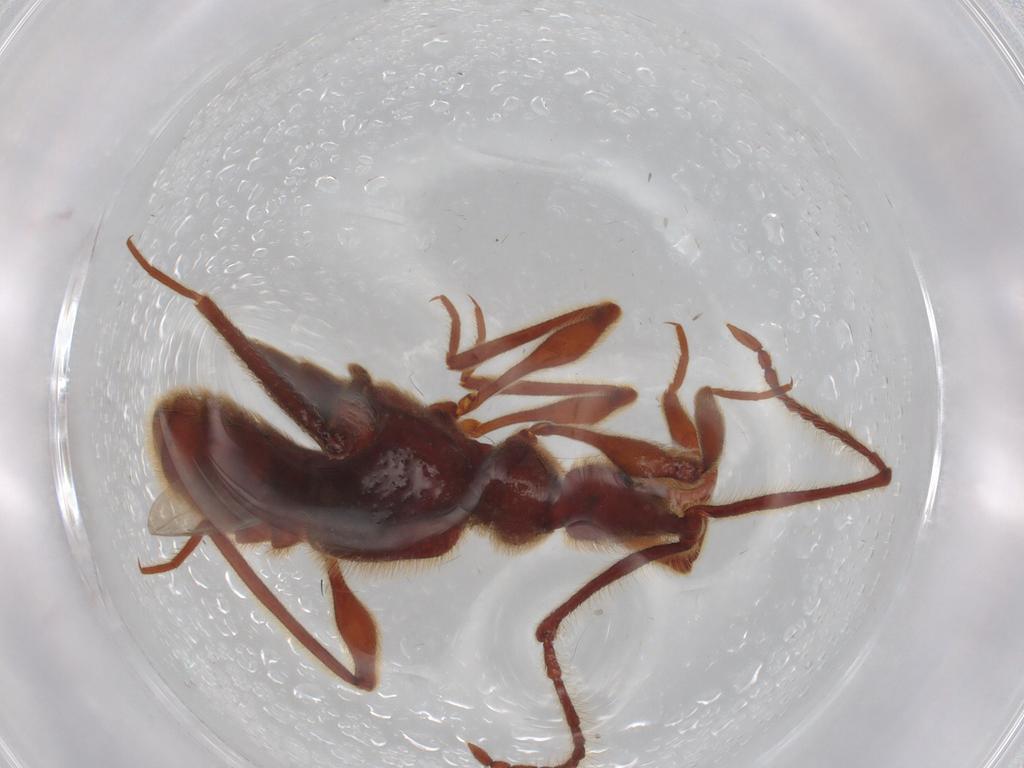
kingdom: Animalia
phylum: Arthropoda
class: Insecta
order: Coleoptera
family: Staphylinidae
